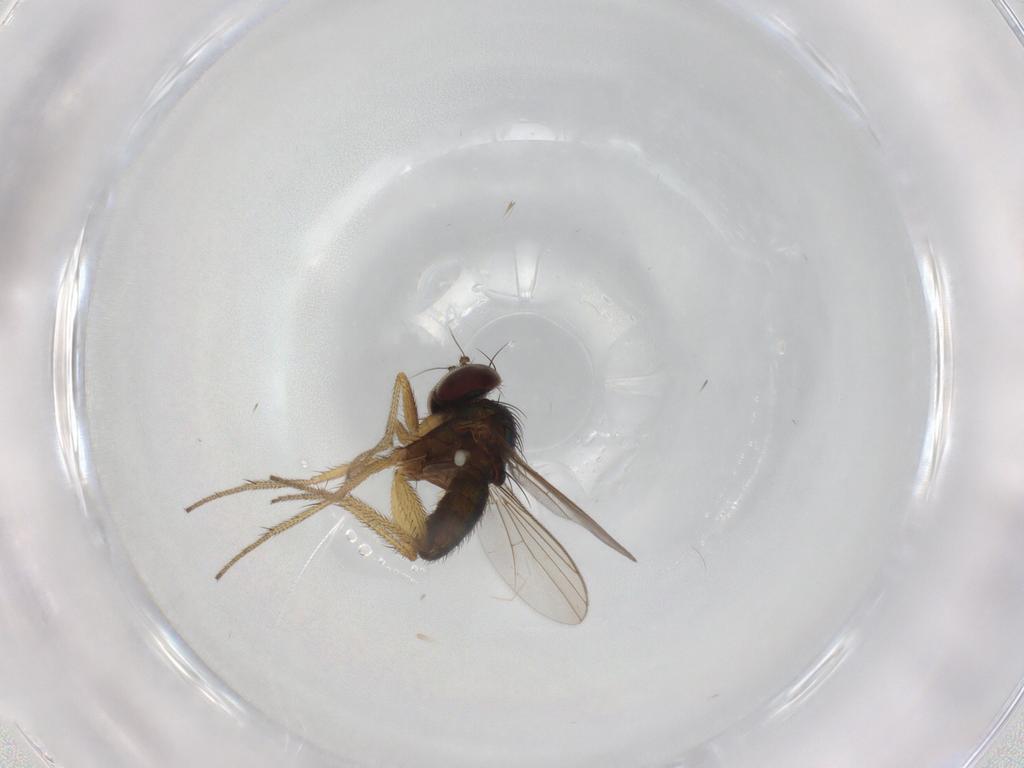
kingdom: Animalia
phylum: Arthropoda
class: Insecta
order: Diptera
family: Dolichopodidae
